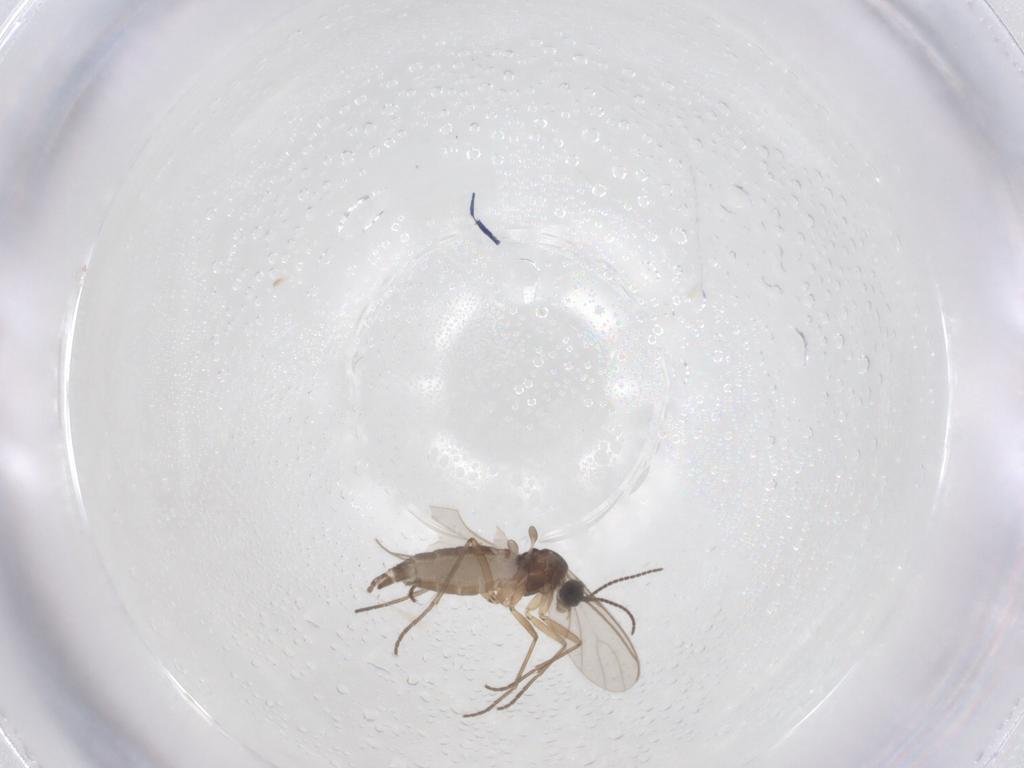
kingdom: Animalia
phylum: Arthropoda
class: Insecta
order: Diptera
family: Sciaridae
